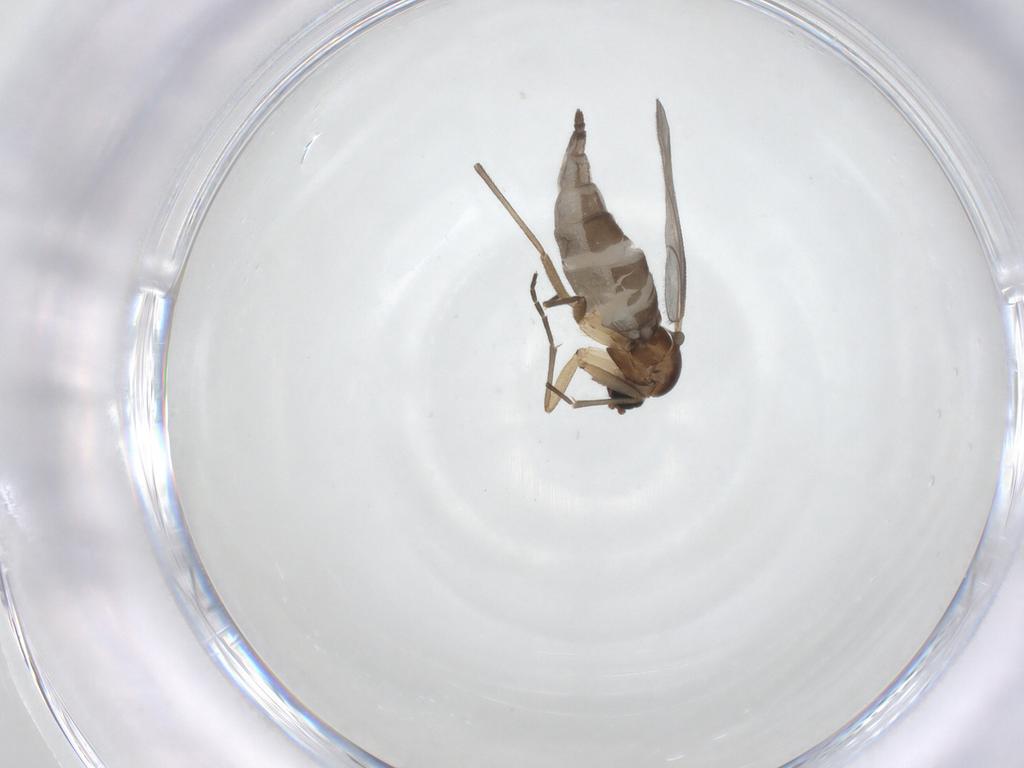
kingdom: Animalia
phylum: Arthropoda
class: Insecta
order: Diptera
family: Sciaridae
